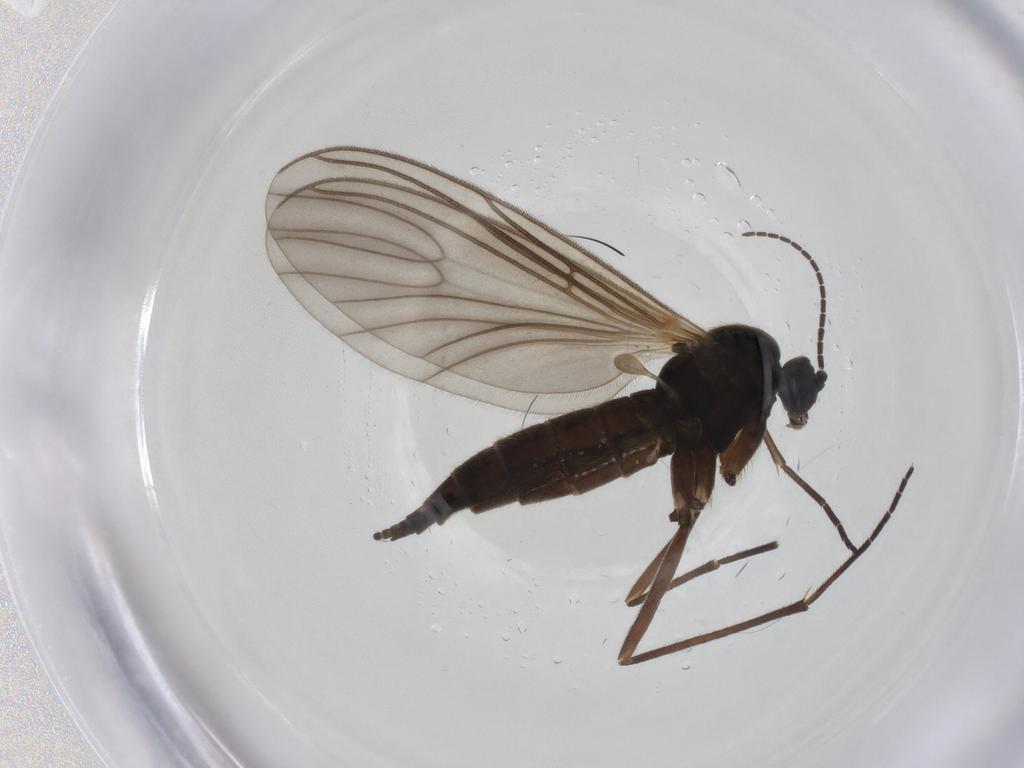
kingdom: Animalia
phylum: Arthropoda
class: Insecta
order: Diptera
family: Sciaridae
